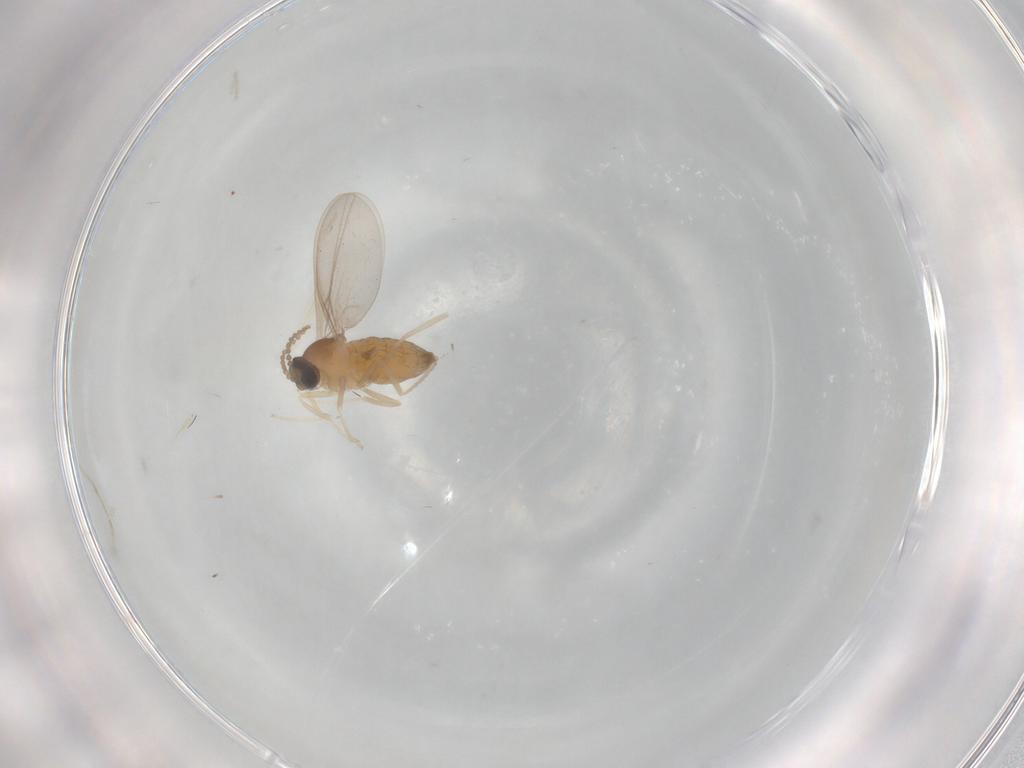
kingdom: Animalia
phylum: Arthropoda
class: Insecta
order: Diptera
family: Cecidomyiidae
